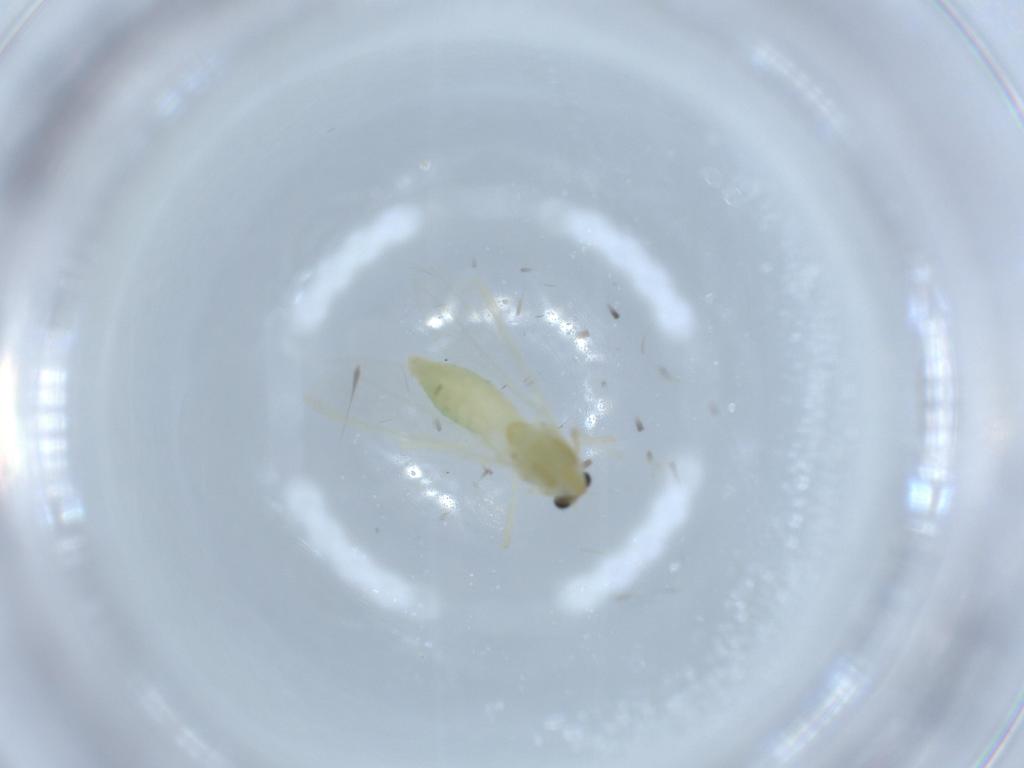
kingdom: Animalia
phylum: Arthropoda
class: Insecta
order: Diptera
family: Chironomidae
